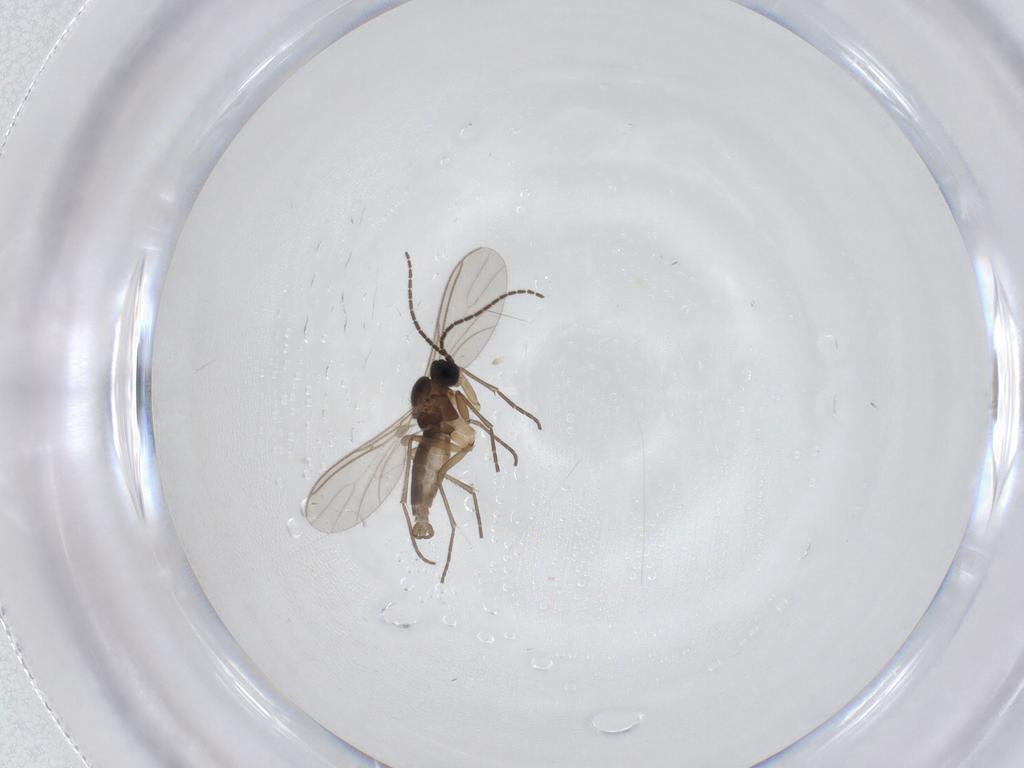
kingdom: Animalia
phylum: Arthropoda
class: Insecta
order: Diptera
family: Sciaridae
